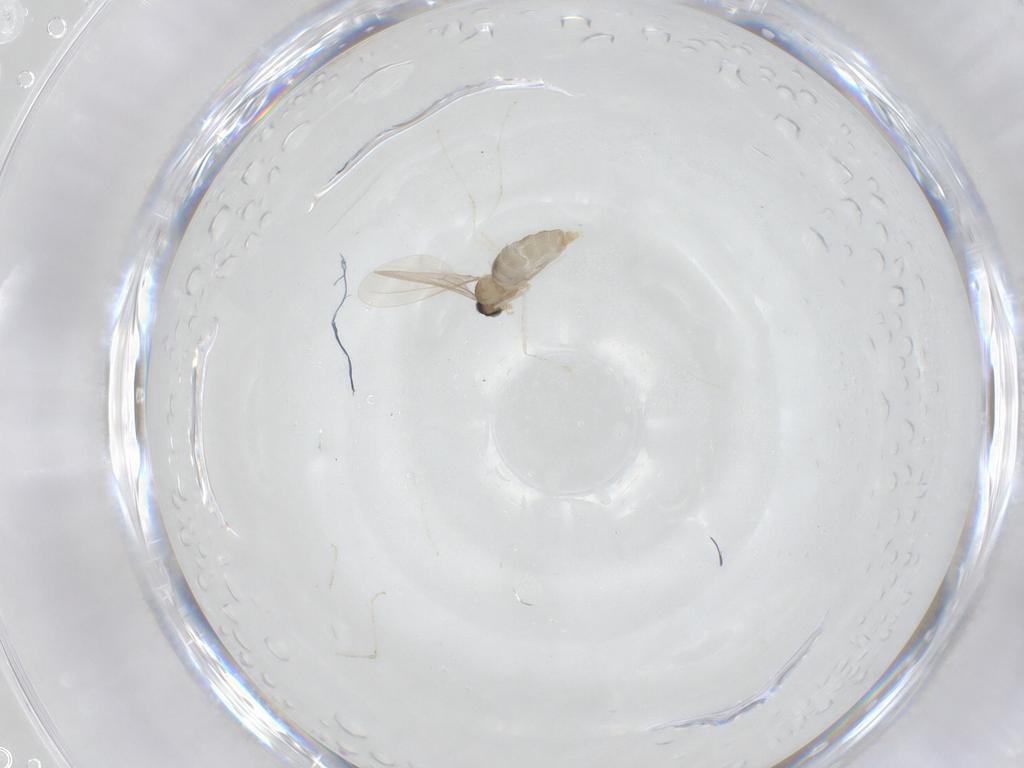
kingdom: Animalia
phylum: Arthropoda
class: Insecta
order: Diptera
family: Cecidomyiidae
